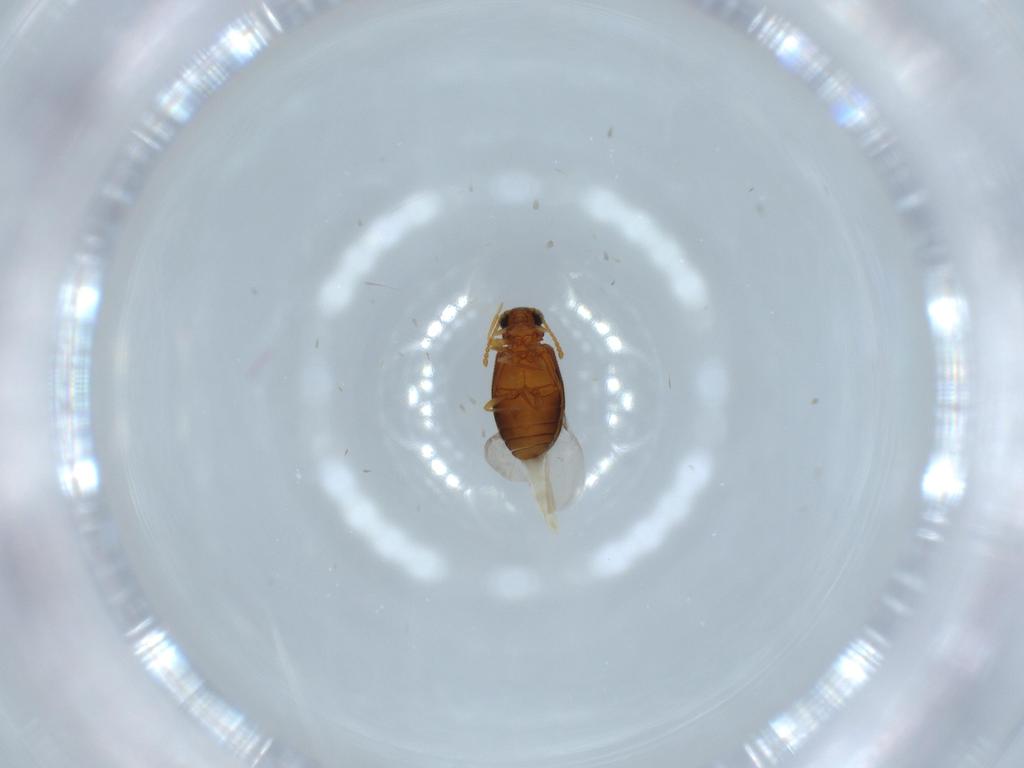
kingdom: Animalia
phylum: Arthropoda
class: Insecta
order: Coleoptera
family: Aderidae
